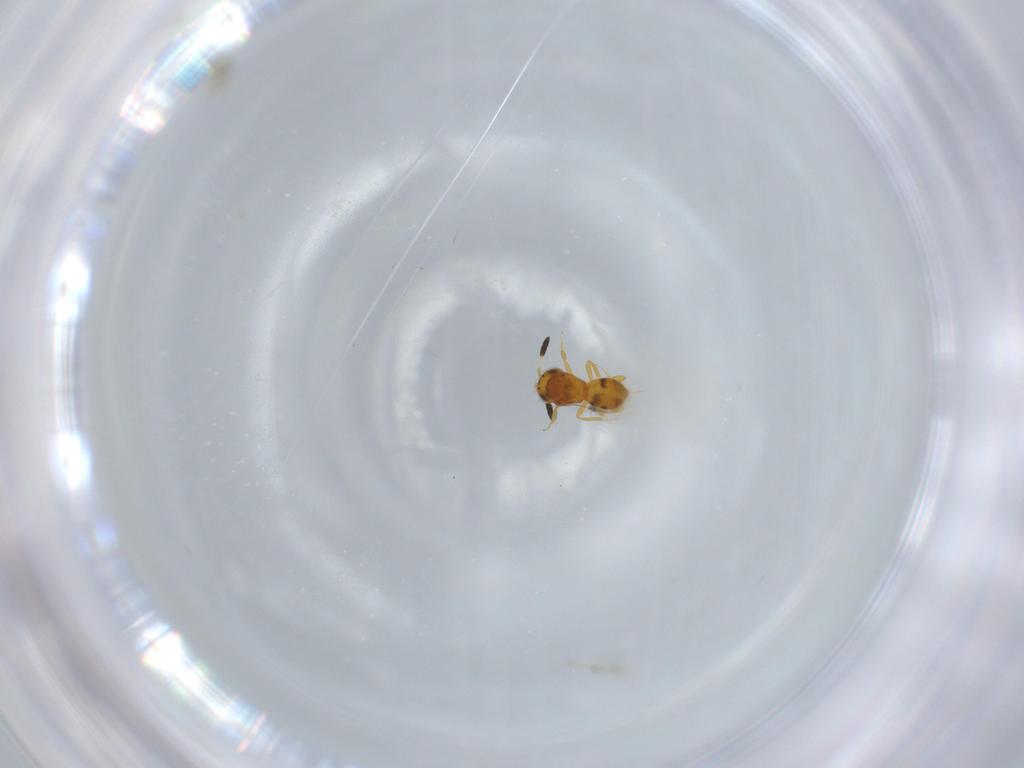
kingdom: Animalia
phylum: Arthropoda
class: Insecta
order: Hymenoptera
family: Scelionidae
